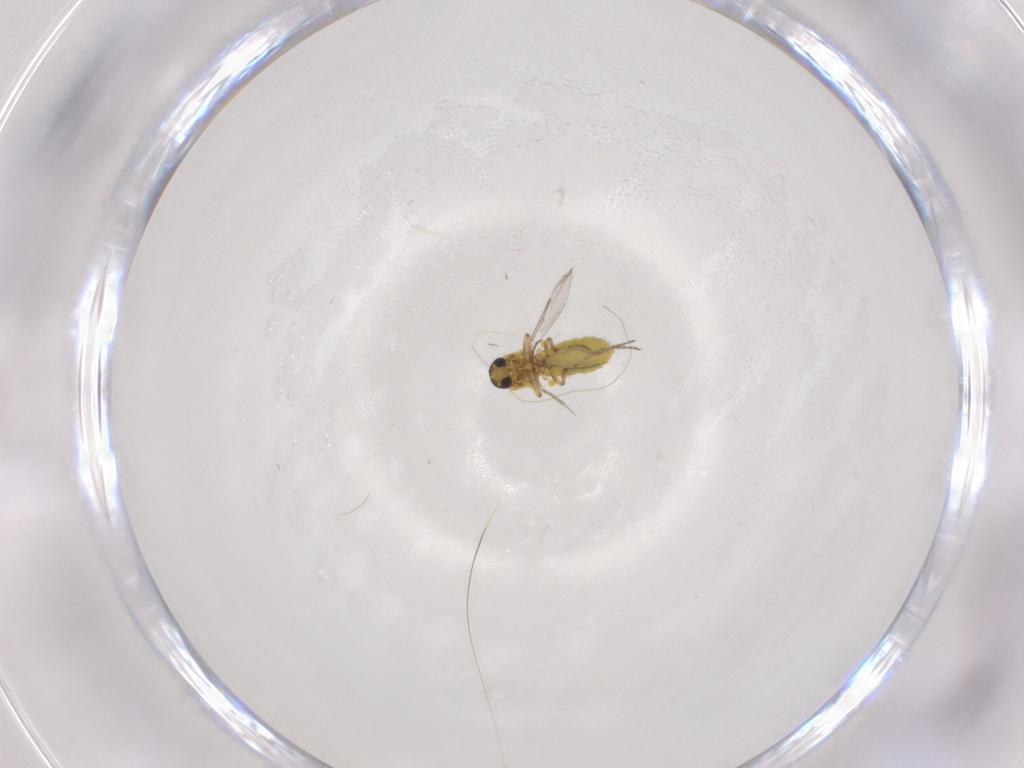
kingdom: Animalia
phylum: Arthropoda
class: Insecta
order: Diptera
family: Cecidomyiidae
